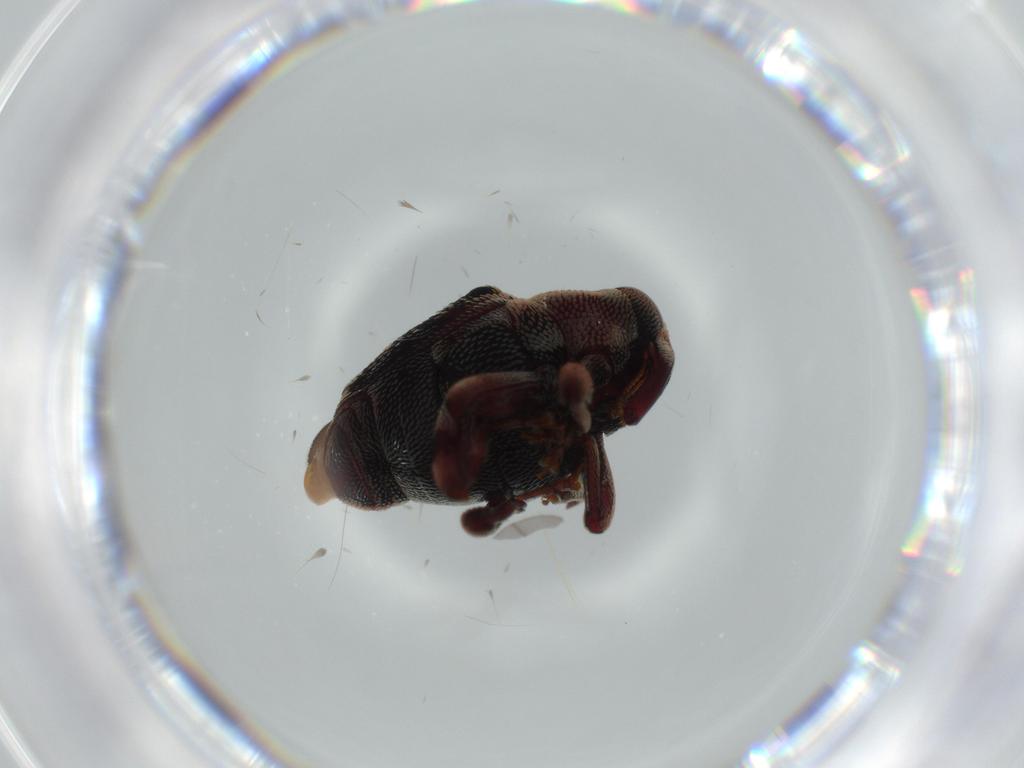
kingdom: Animalia
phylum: Arthropoda
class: Insecta
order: Coleoptera
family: Curculionidae
